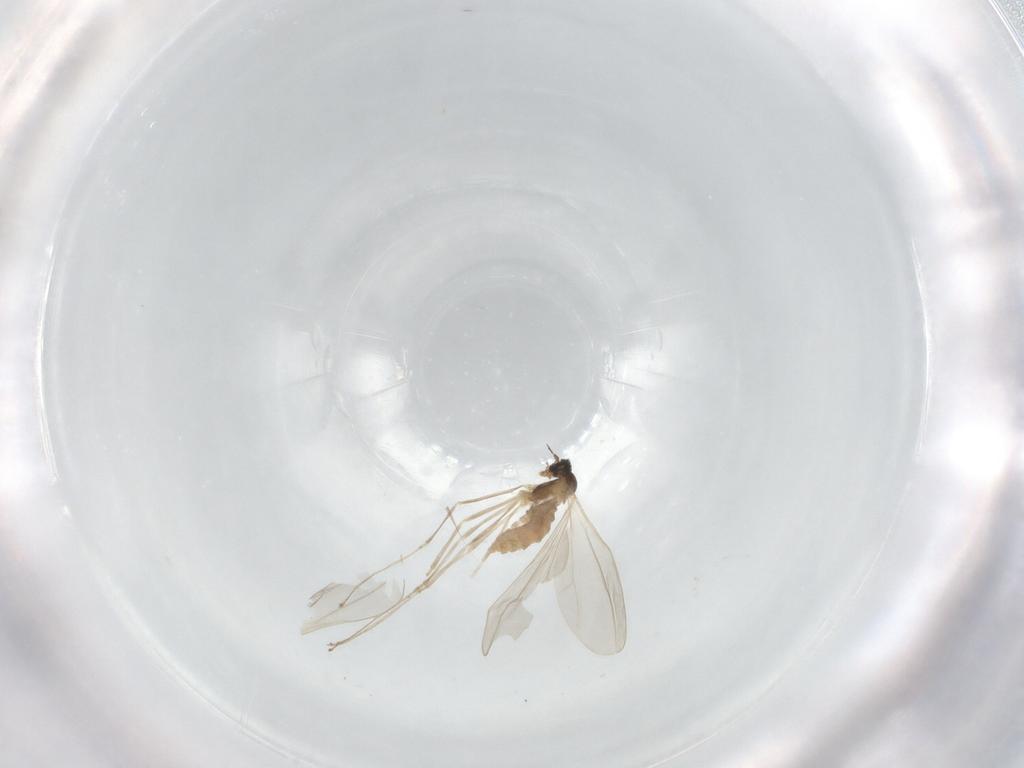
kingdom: Animalia
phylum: Arthropoda
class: Insecta
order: Diptera
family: Cecidomyiidae
